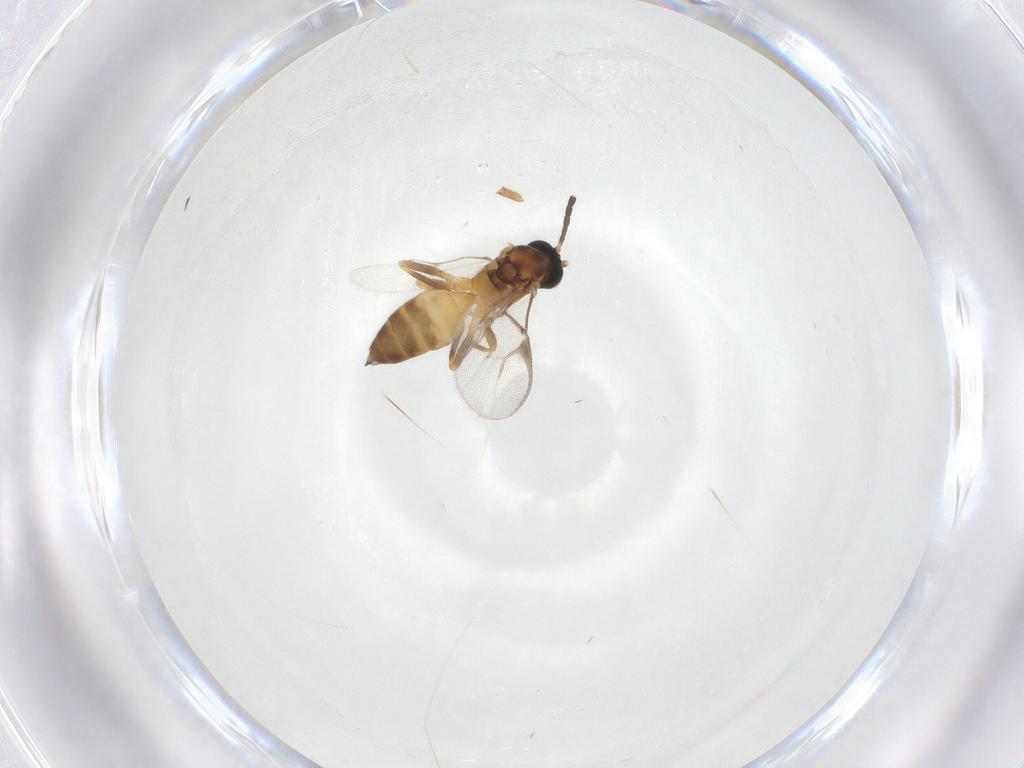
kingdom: Animalia
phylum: Arthropoda
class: Insecta
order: Hymenoptera
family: Braconidae
